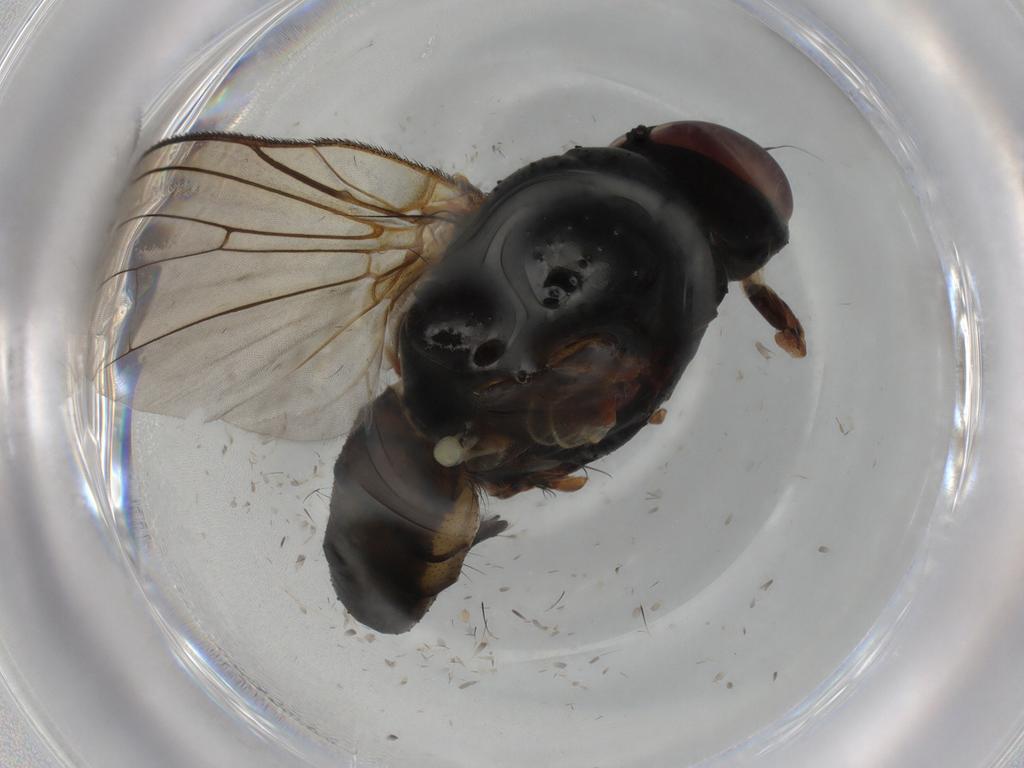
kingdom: Animalia
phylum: Arthropoda
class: Insecta
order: Diptera
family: Anthomyiidae
